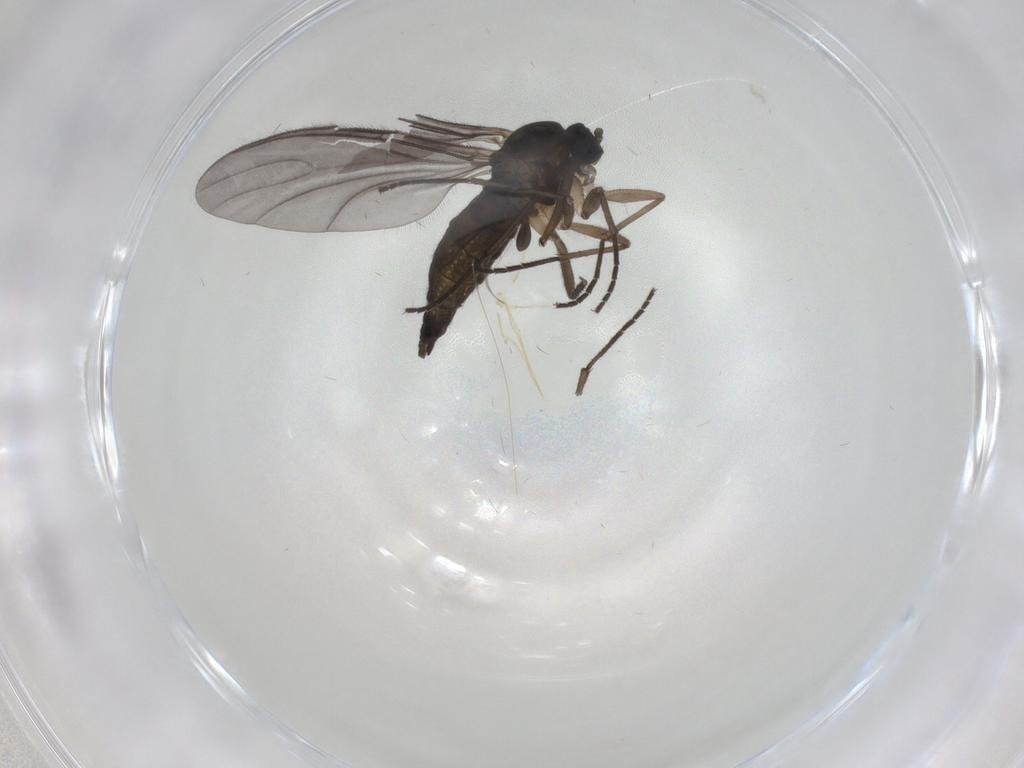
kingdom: Animalia
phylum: Arthropoda
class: Insecta
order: Diptera
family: Sciaridae
